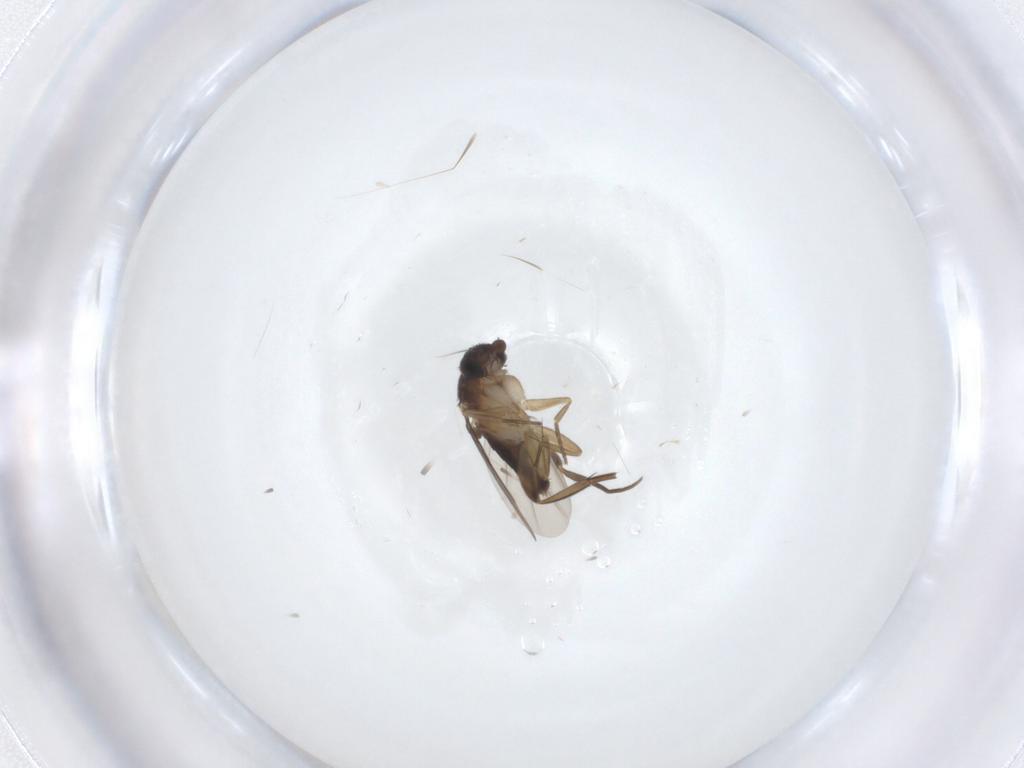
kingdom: Animalia
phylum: Arthropoda
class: Insecta
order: Diptera
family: Phoridae
